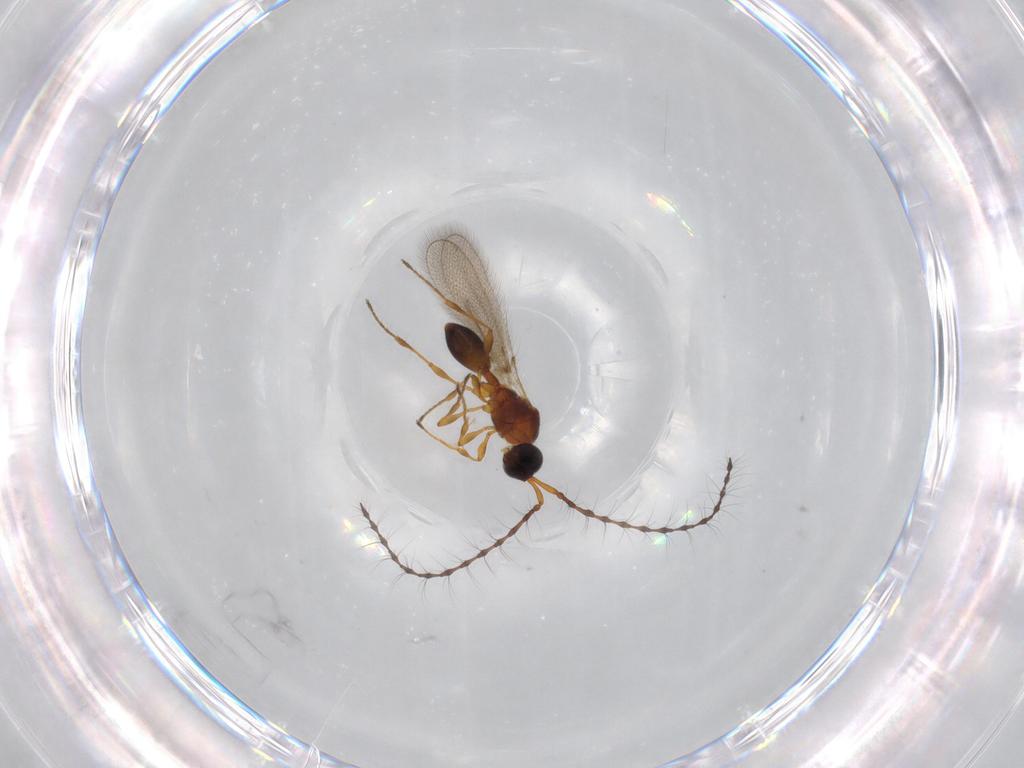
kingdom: Animalia
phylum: Arthropoda
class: Insecta
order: Hymenoptera
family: Diapriidae
